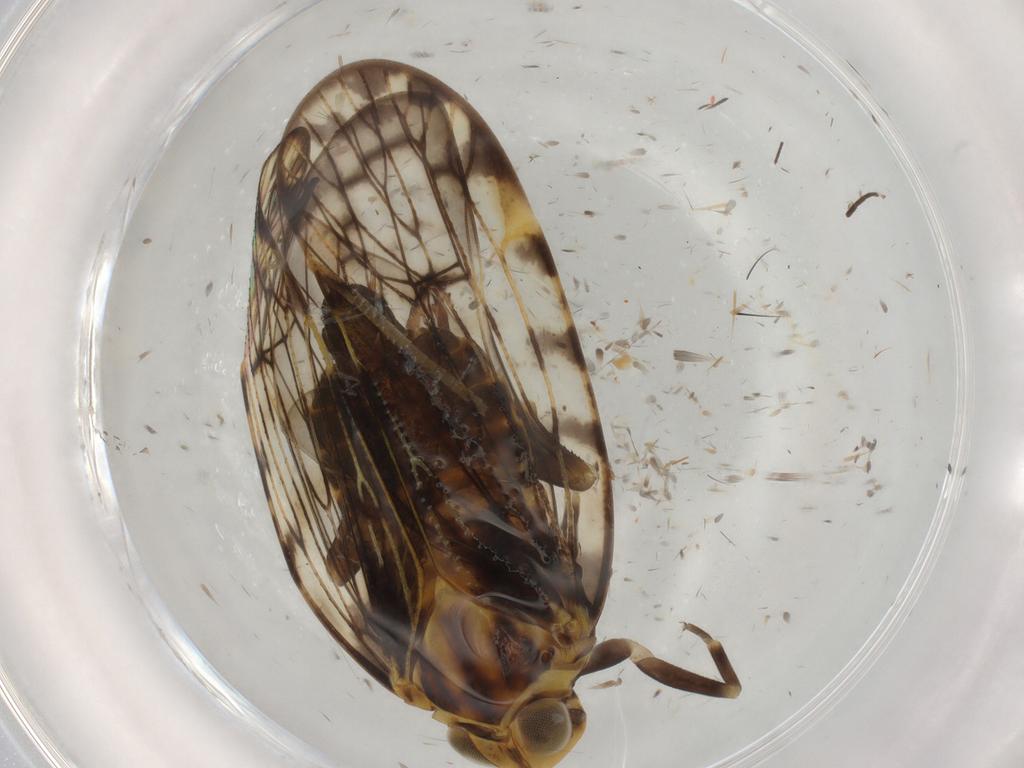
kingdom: Animalia
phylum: Arthropoda
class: Insecta
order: Hemiptera
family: Cixiidae
